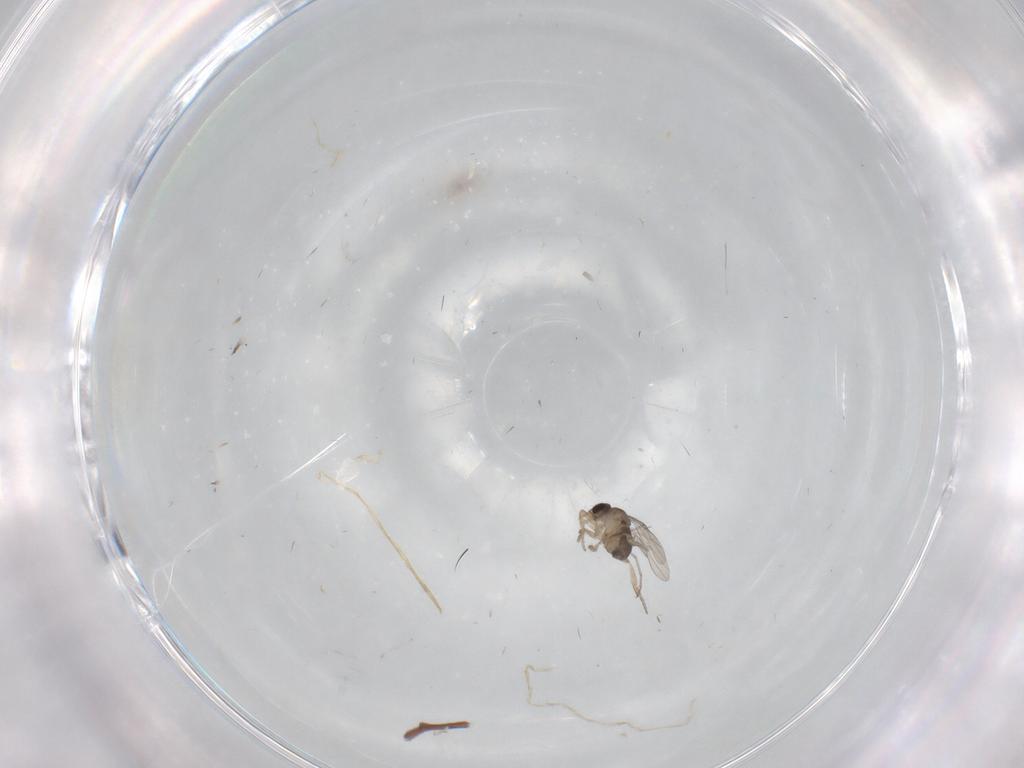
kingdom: Animalia
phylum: Arthropoda
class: Insecta
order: Diptera
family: Phoridae
